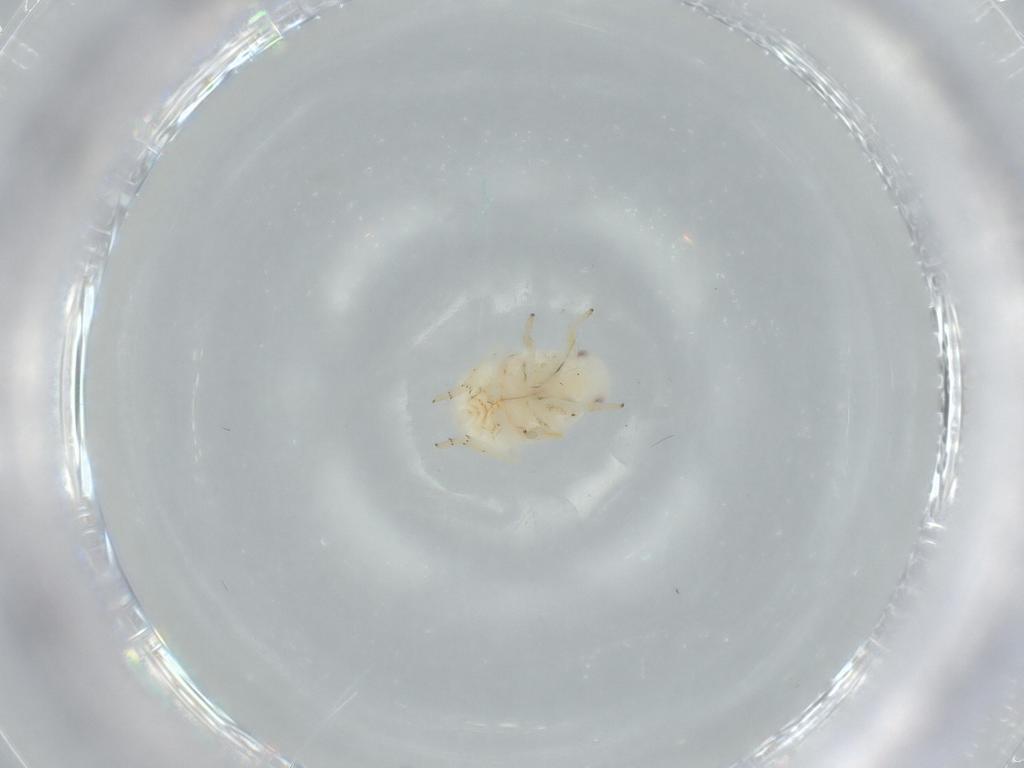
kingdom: Animalia
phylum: Arthropoda
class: Insecta
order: Hemiptera
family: Flatidae
